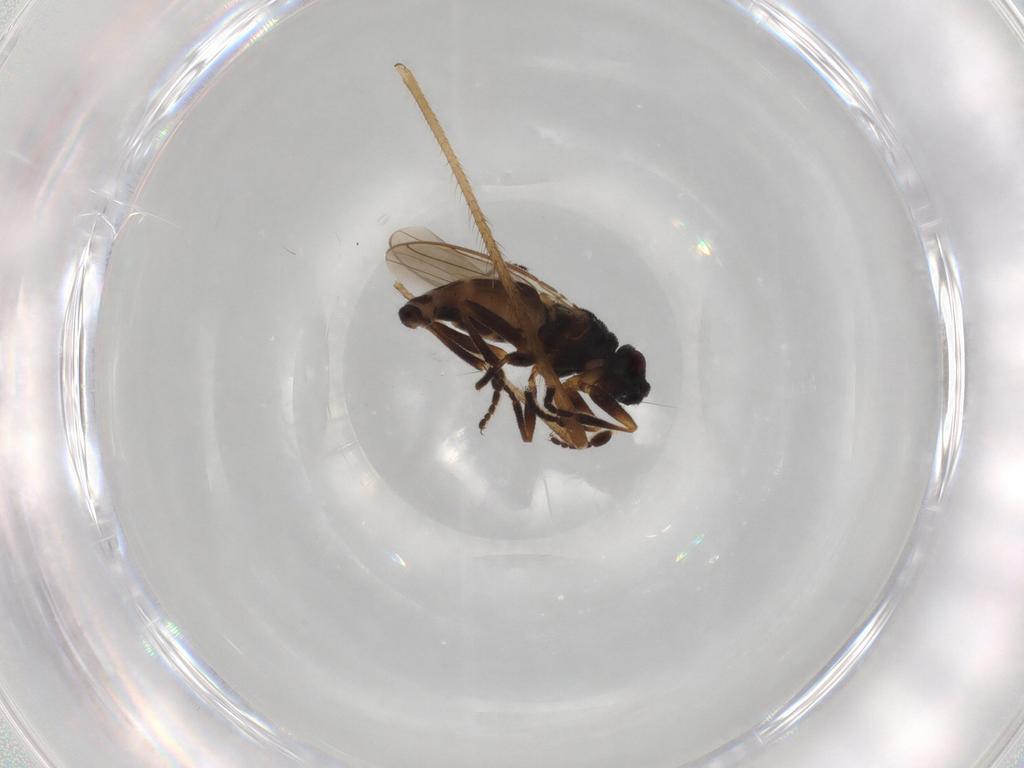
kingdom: Animalia
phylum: Arthropoda
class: Insecta
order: Diptera
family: Limoniidae
